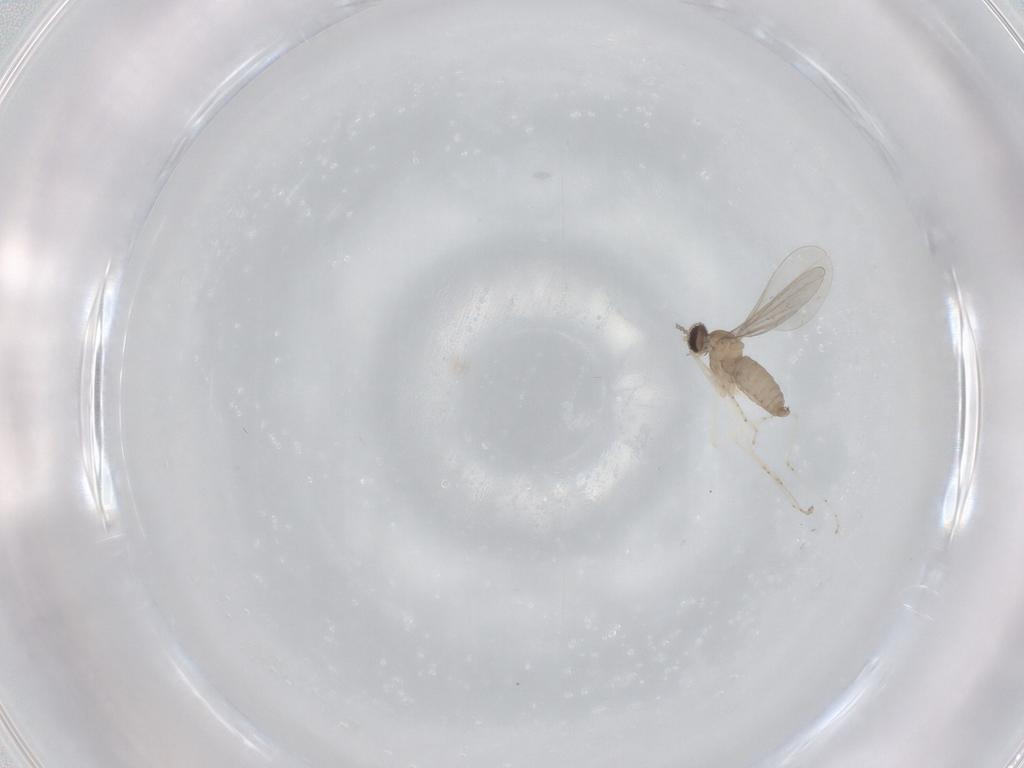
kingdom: Animalia
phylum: Arthropoda
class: Insecta
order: Diptera
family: Cecidomyiidae
